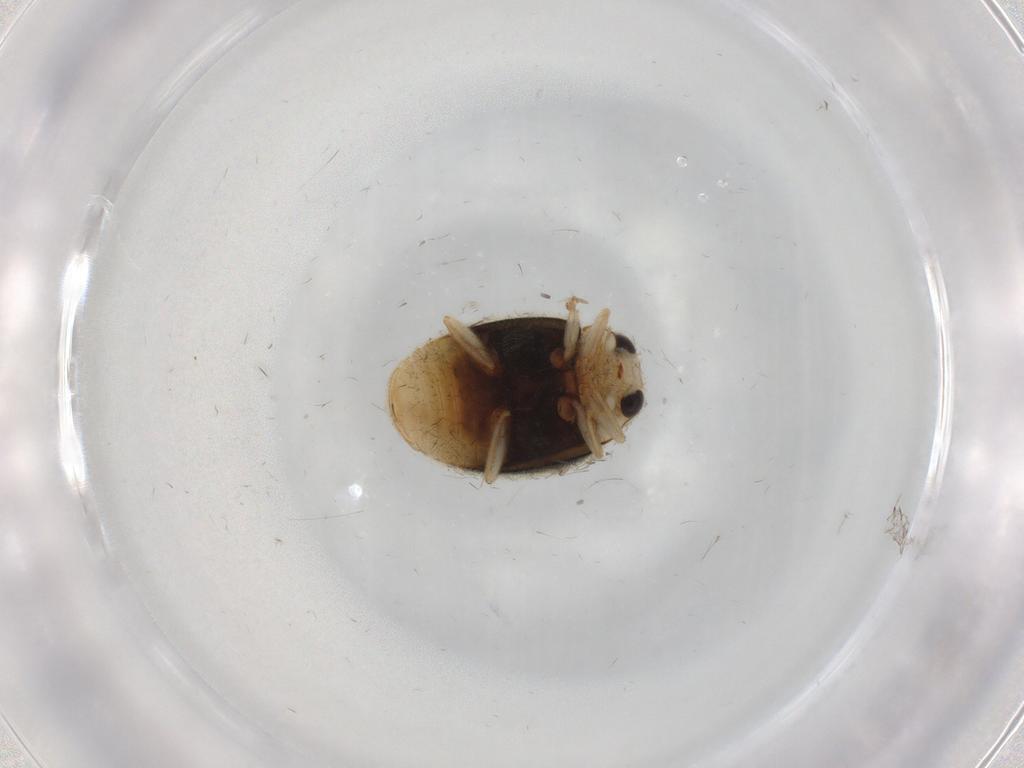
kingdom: Animalia
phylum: Arthropoda
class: Insecta
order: Coleoptera
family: Coccinellidae
